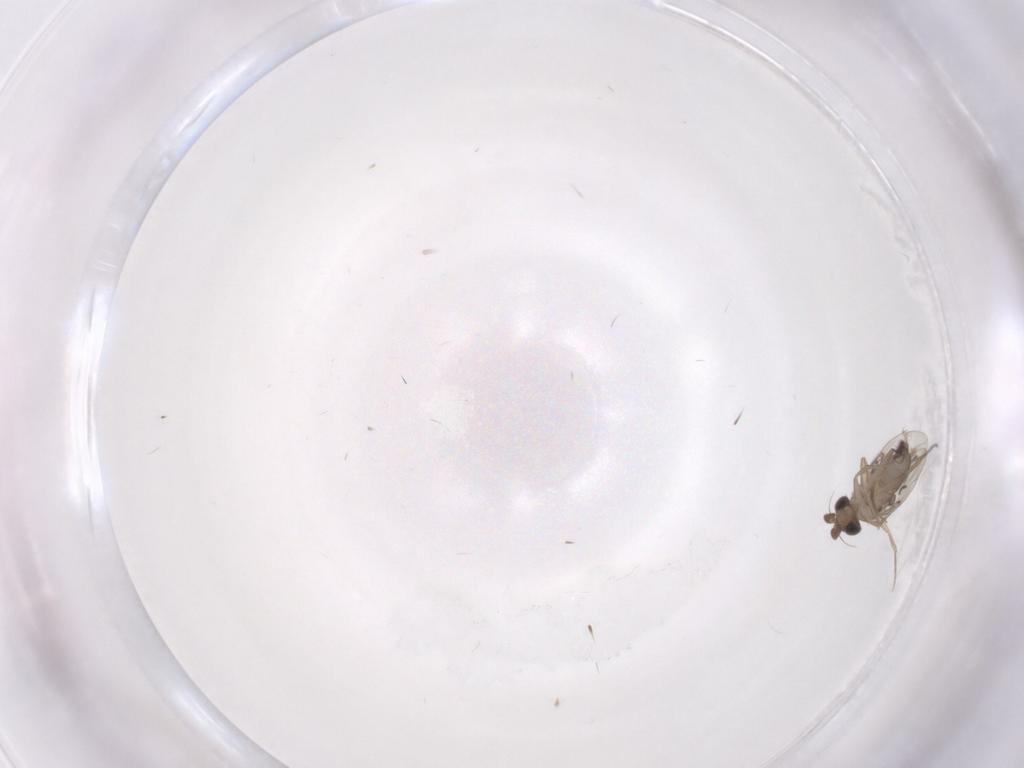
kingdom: Animalia
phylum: Arthropoda
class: Insecta
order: Diptera
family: Phoridae
